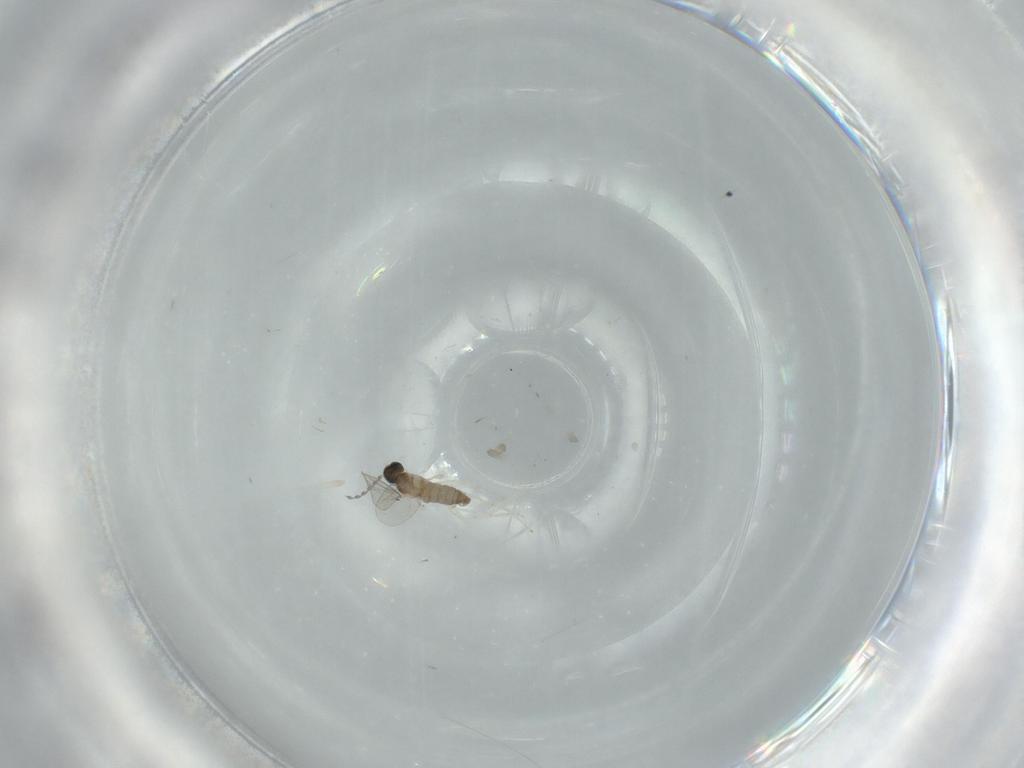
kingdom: Animalia
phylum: Arthropoda
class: Insecta
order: Diptera
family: Cecidomyiidae
